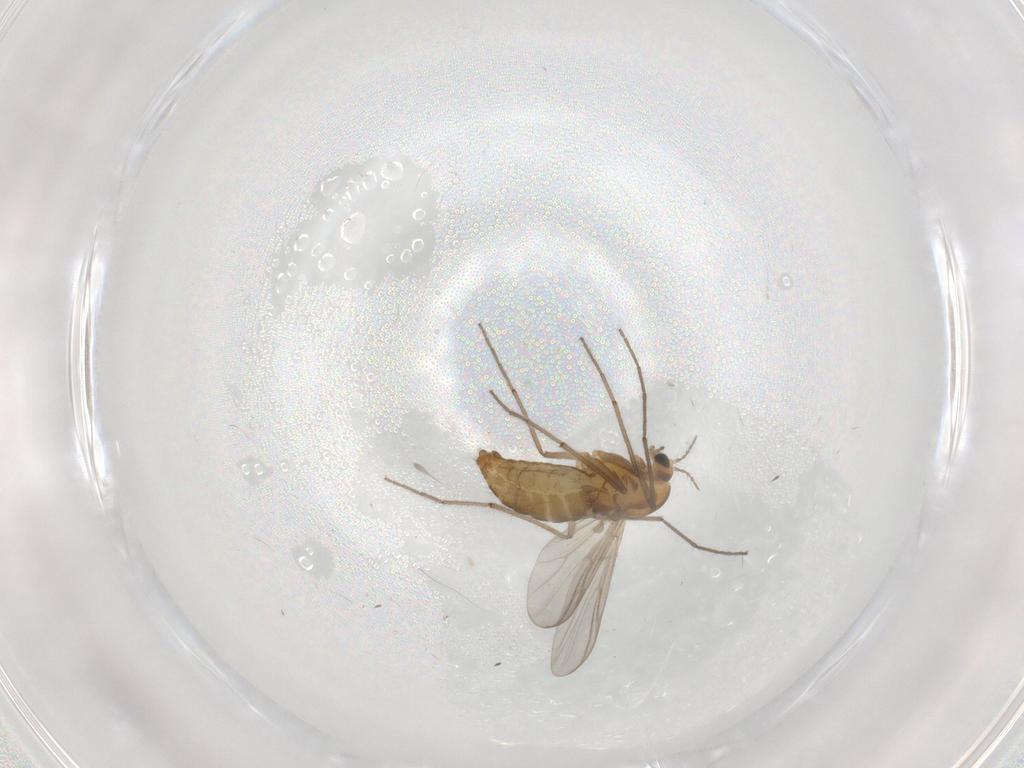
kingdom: Animalia
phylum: Arthropoda
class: Insecta
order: Diptera
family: Chironomidae
